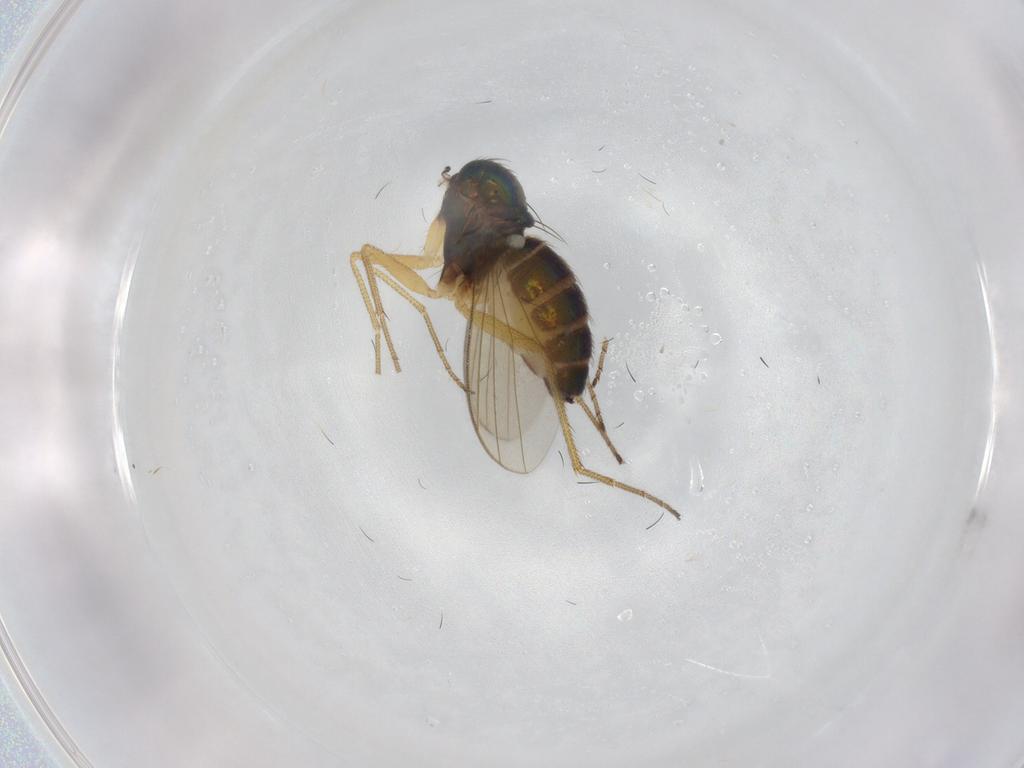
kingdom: Animalia
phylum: Arthropoda
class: Insecta
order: Diptera
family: Dolichopodidae
